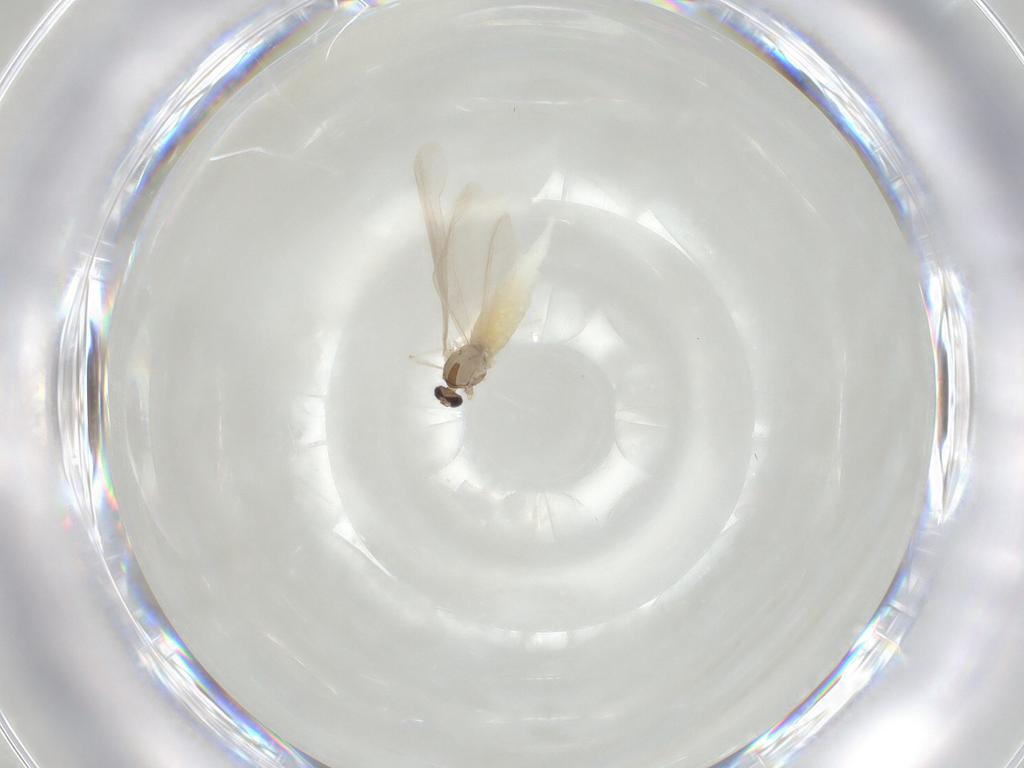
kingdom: Animalia
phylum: Arthropoda
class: Insecta
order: Diptera
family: Cecidomyiidae
